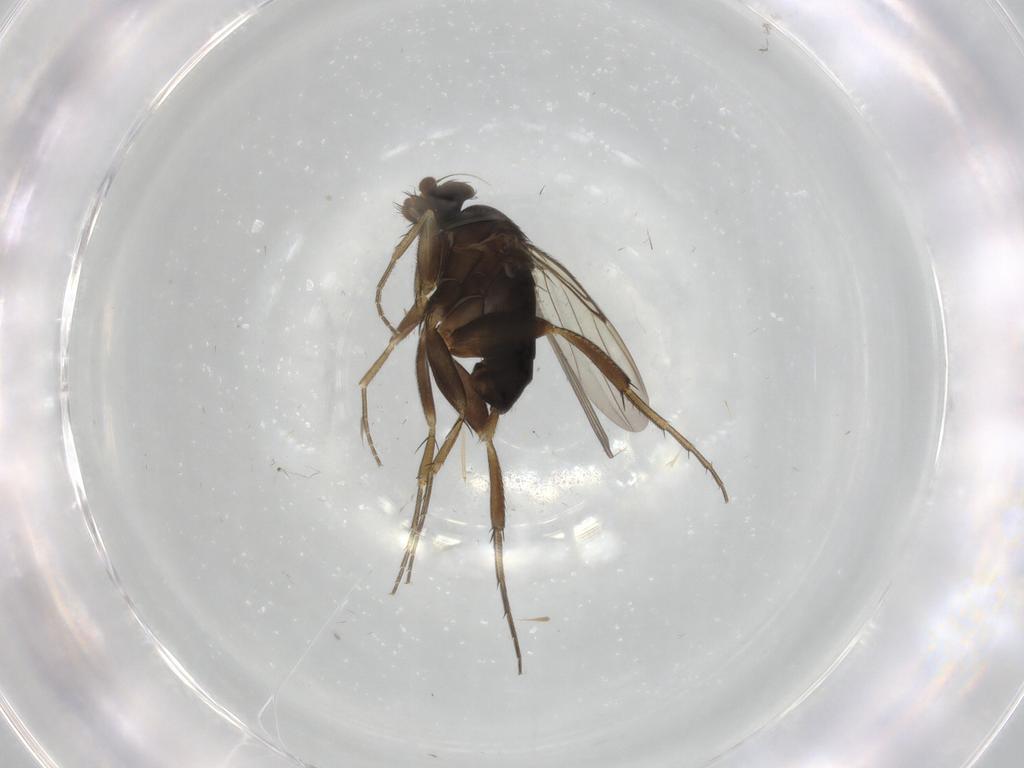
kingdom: Animalia
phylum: Arthropoda
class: Insecta
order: Diptera
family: Phoridae
